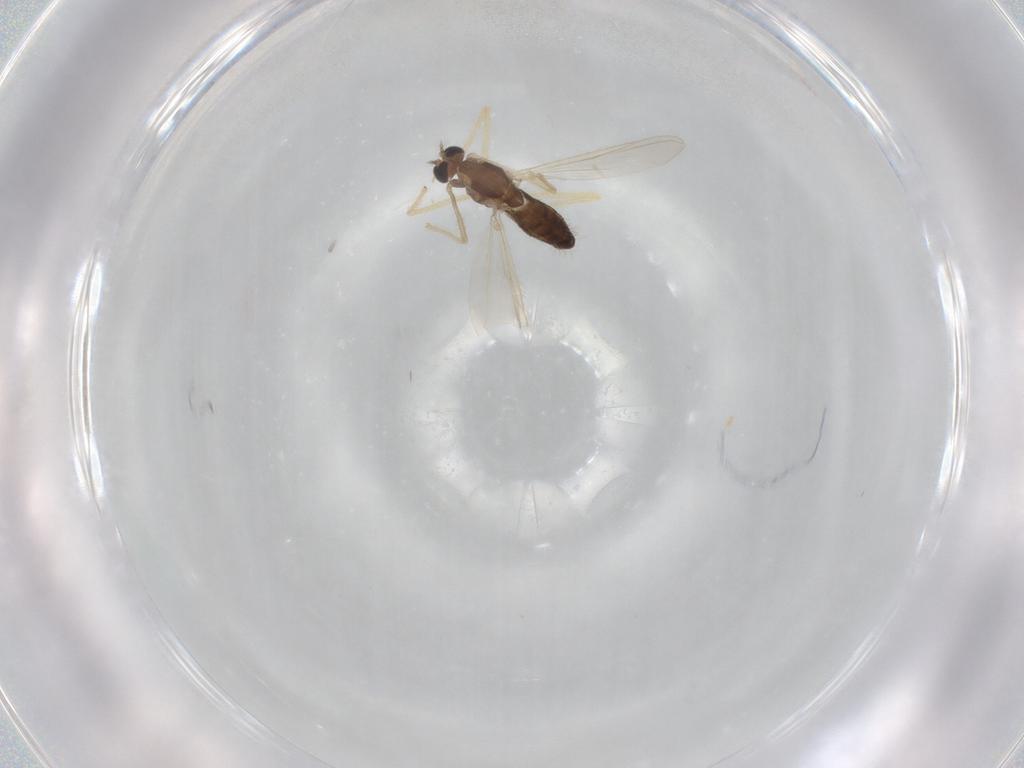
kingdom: Animalia
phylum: Arthropoda
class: Insecta
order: Diptera
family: Chironomidae
